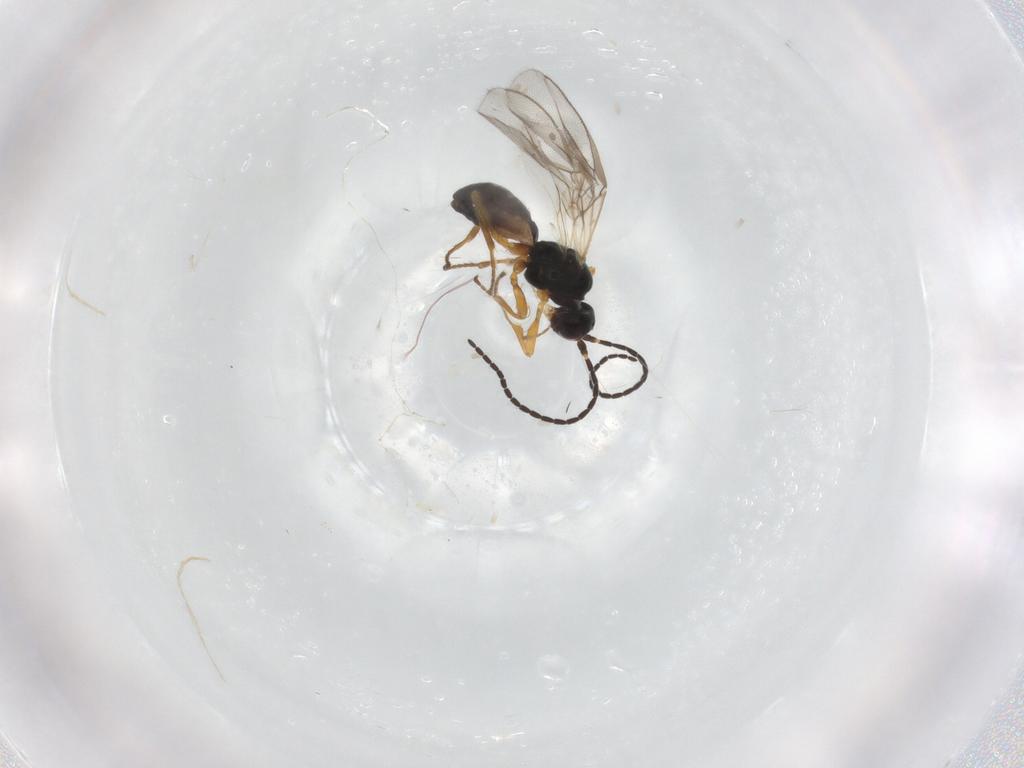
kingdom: Animalia
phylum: Arthropoda
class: Insecta
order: Hymenoptera
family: Braconidae
